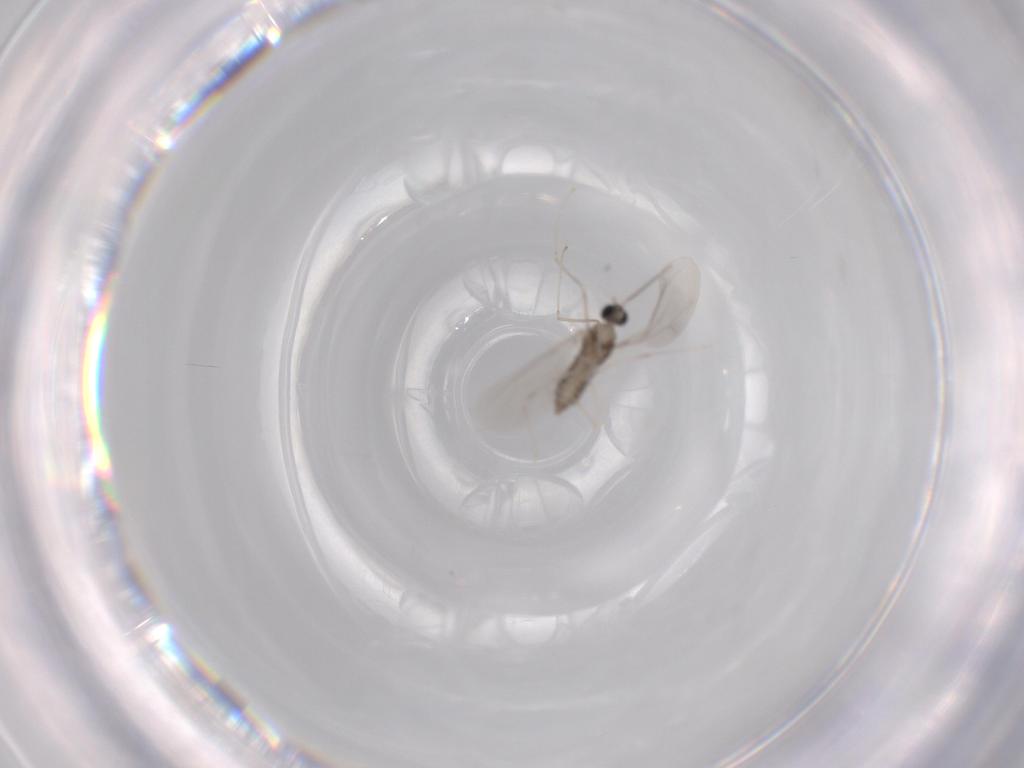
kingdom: Animalia
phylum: Arthropoda
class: Insecta
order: Diptera
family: Cecidomyiidae
